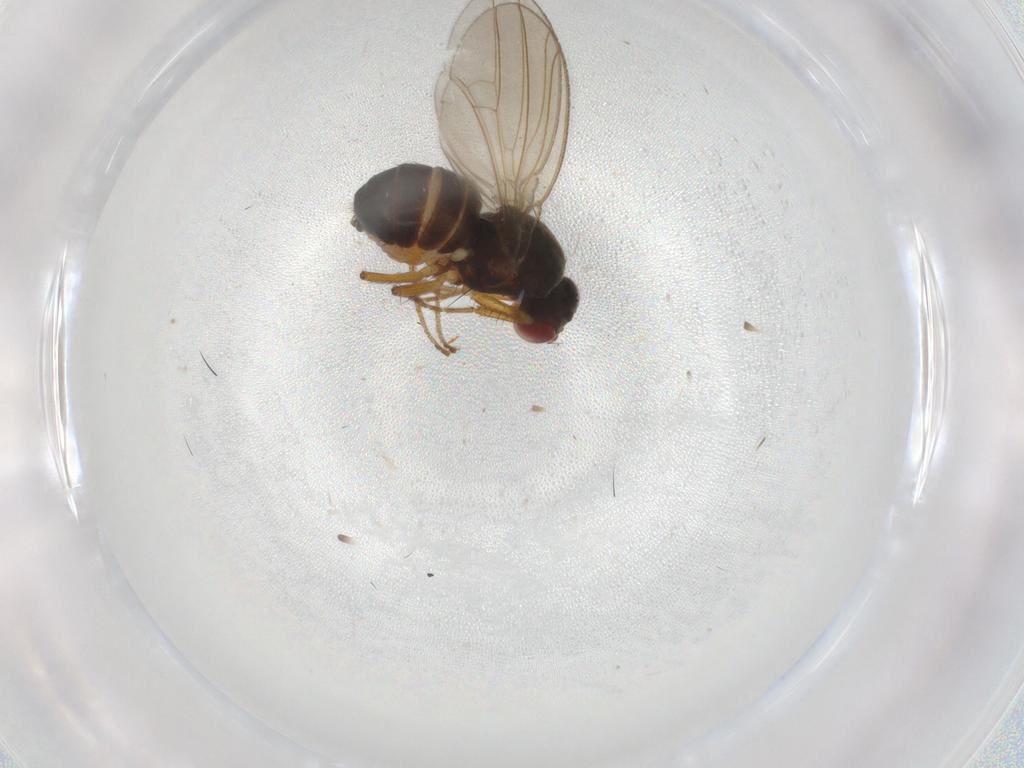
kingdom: Animalia
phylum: Arthropoda
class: Insecta
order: Diptera
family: Drosophilidae
